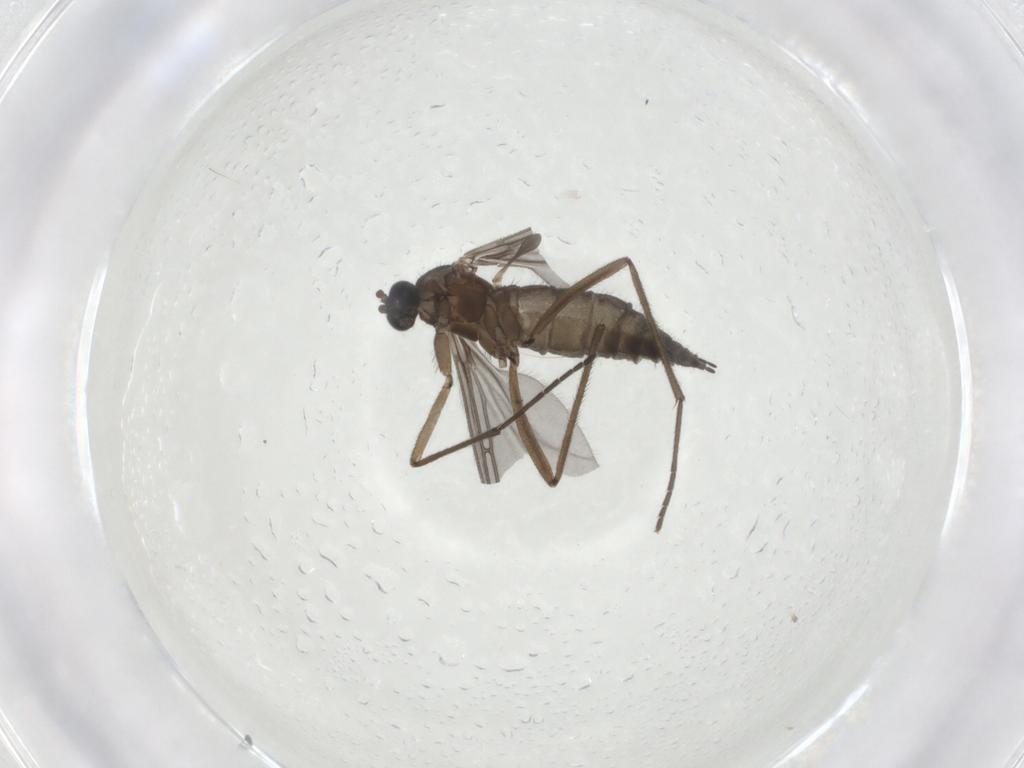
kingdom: Animalia
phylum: Arthropoda
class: Insecta
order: Diptera
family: Sciaridae
